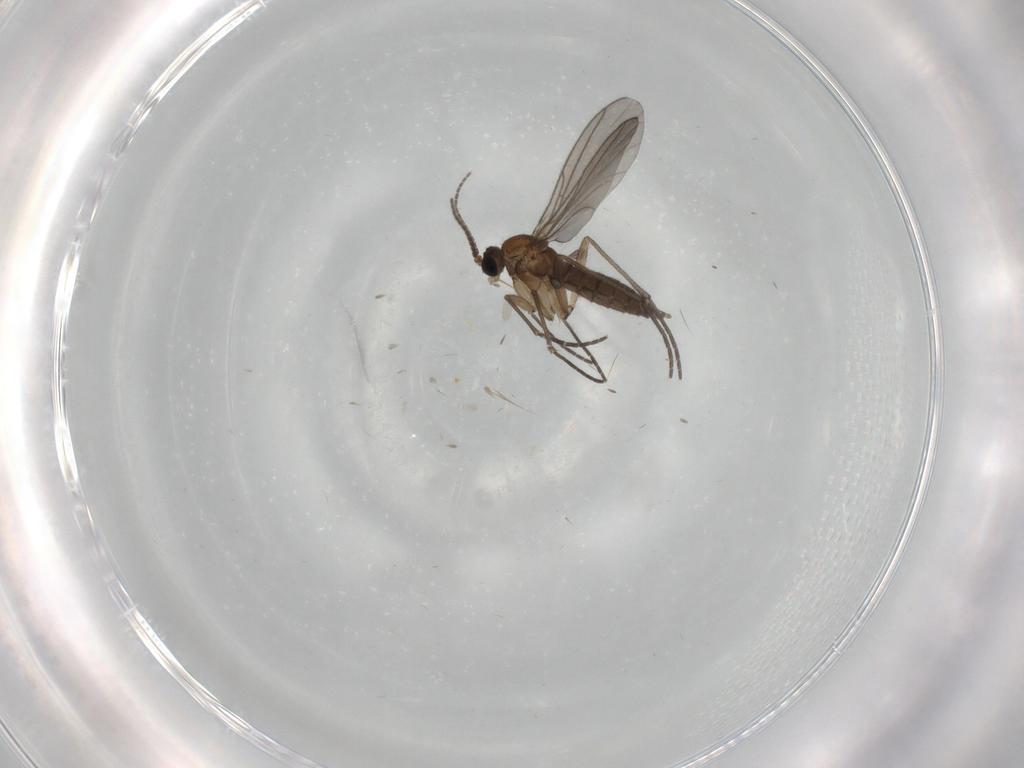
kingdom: Animalia
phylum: Arthropoda
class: Insecta
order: Diptera
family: Sciaridae
